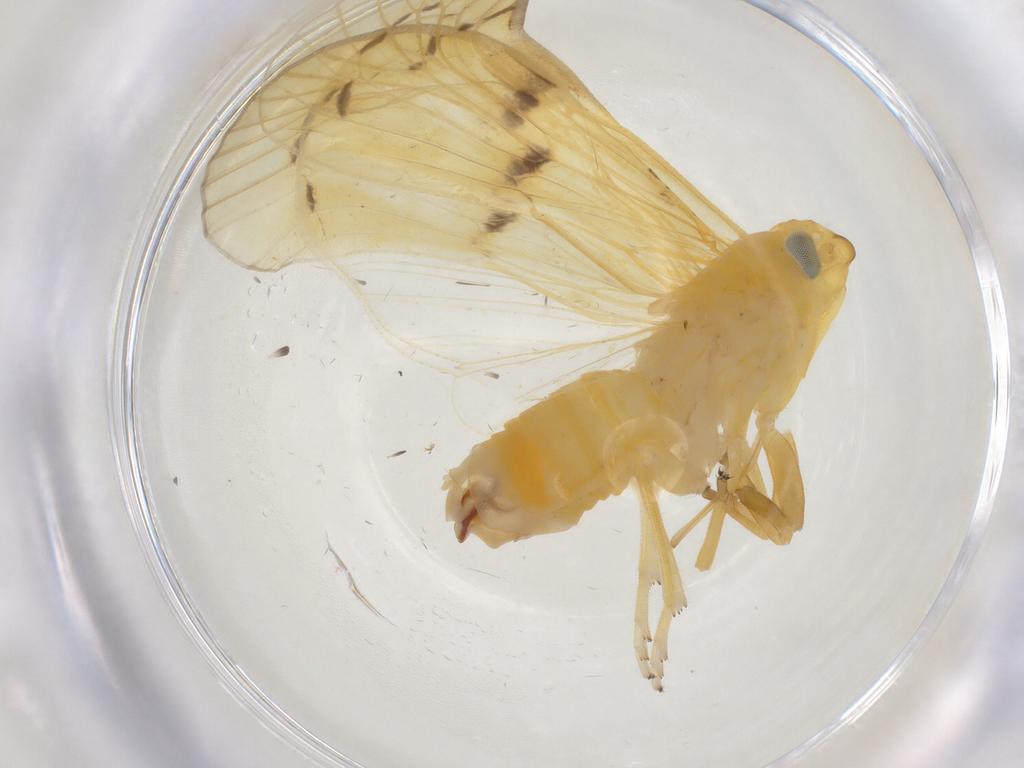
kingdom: Animalia
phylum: Arthropoda
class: Insecta
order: Hemiptera
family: Cixiidae
